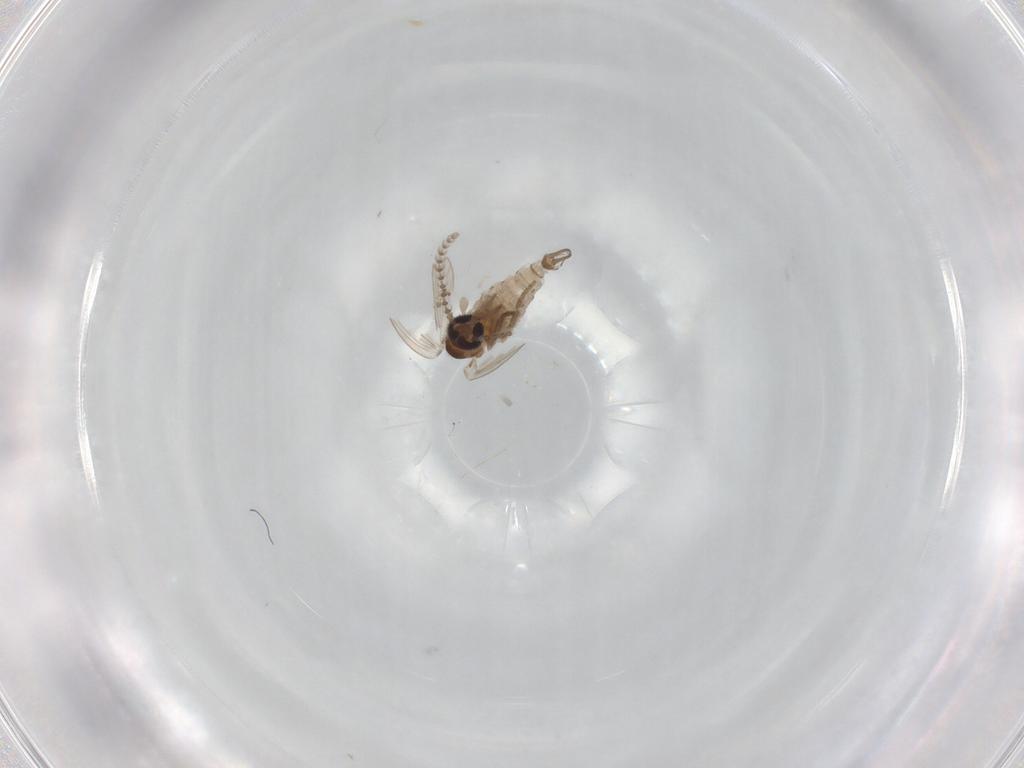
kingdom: Animalia
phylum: Arthropoda
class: Insecta
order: Diptera
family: Psychodidae
